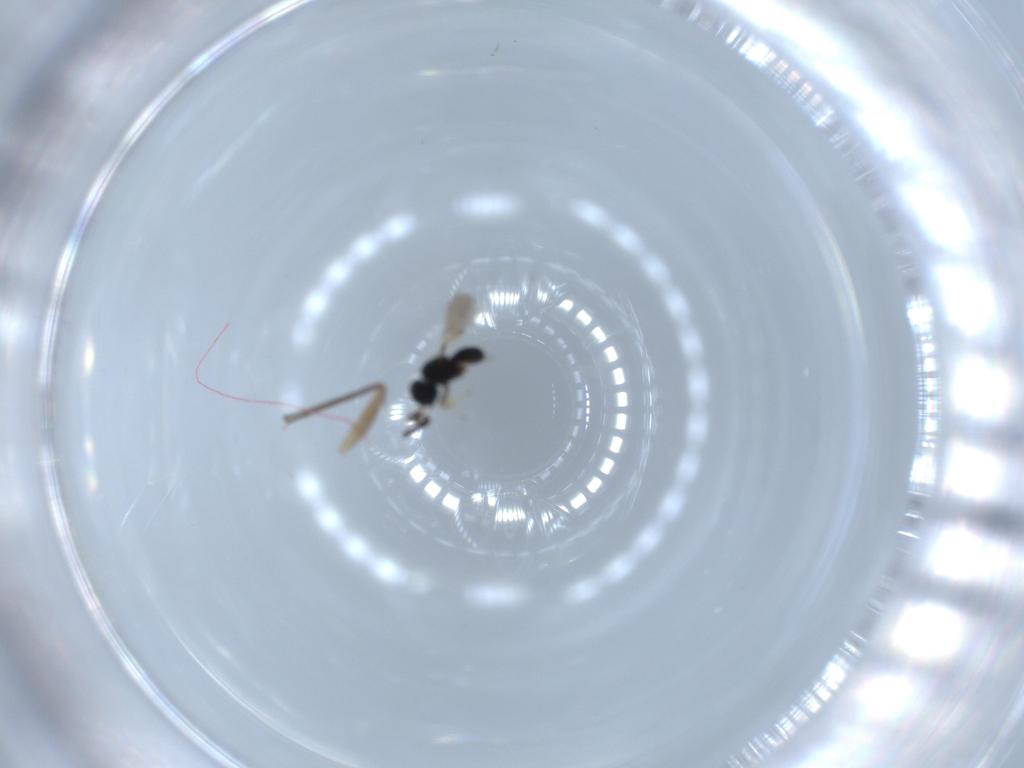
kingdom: Animalia
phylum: Arthropoda
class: Insecta
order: Hymenoptera
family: Scelionidae
